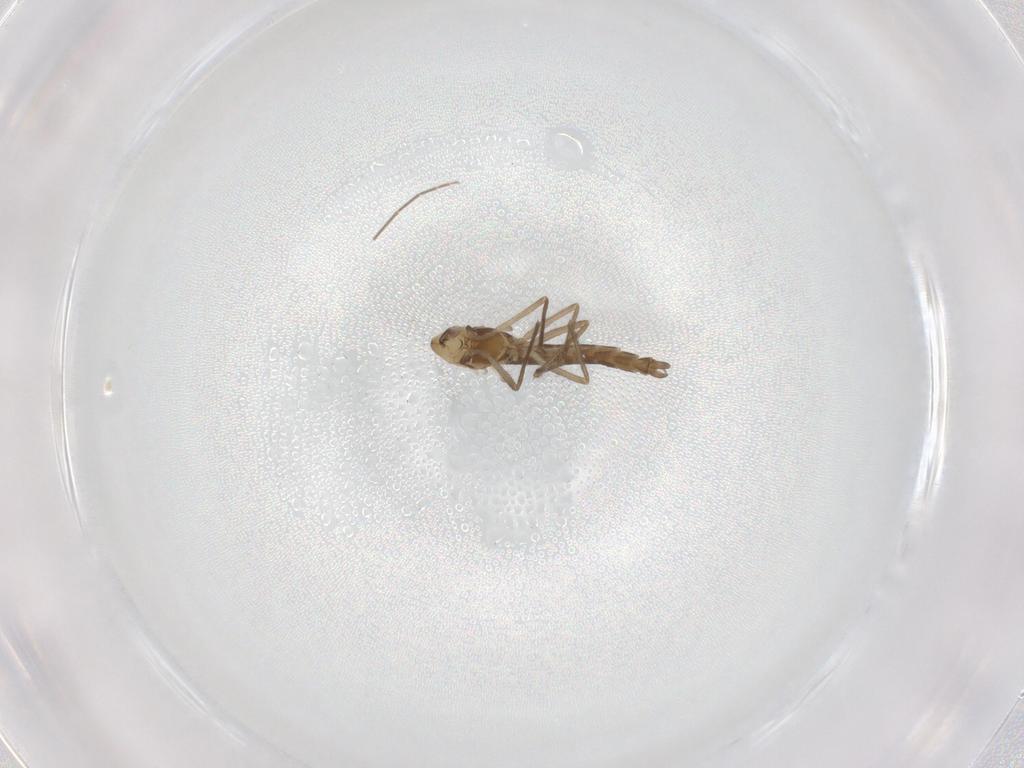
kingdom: Animalia
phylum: Arthropoda
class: Insecta
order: Diptera
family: Chironomidae
